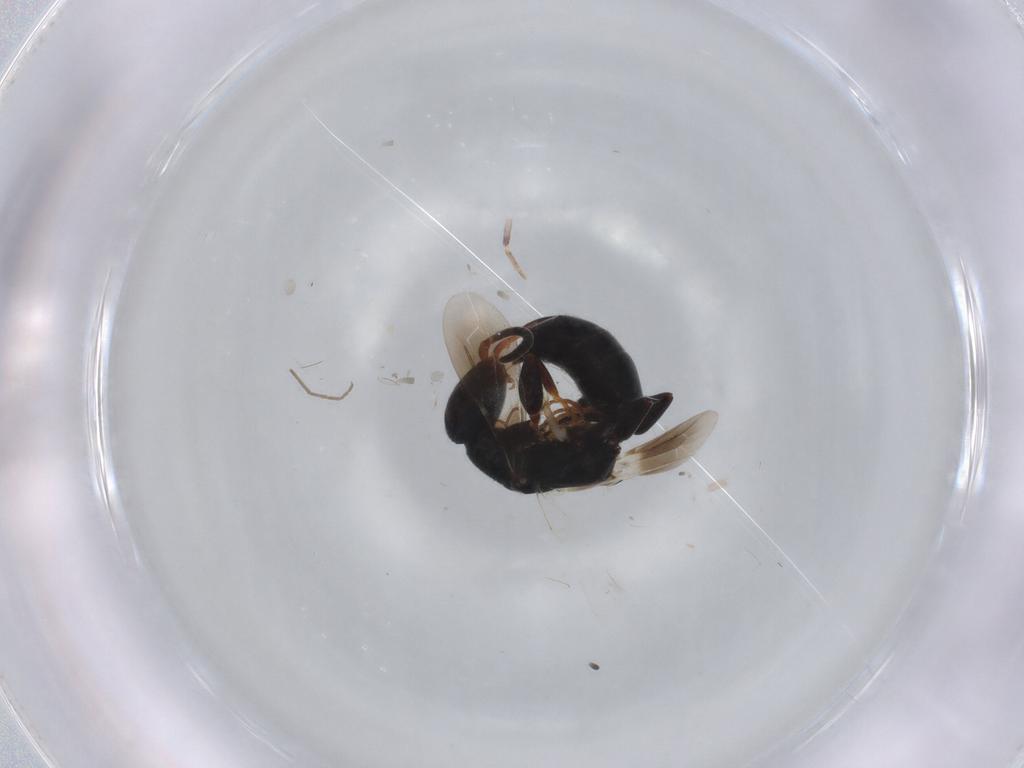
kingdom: Animalia
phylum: Arthropoda
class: Insecta
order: Hymenoptera
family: Bethylidae
